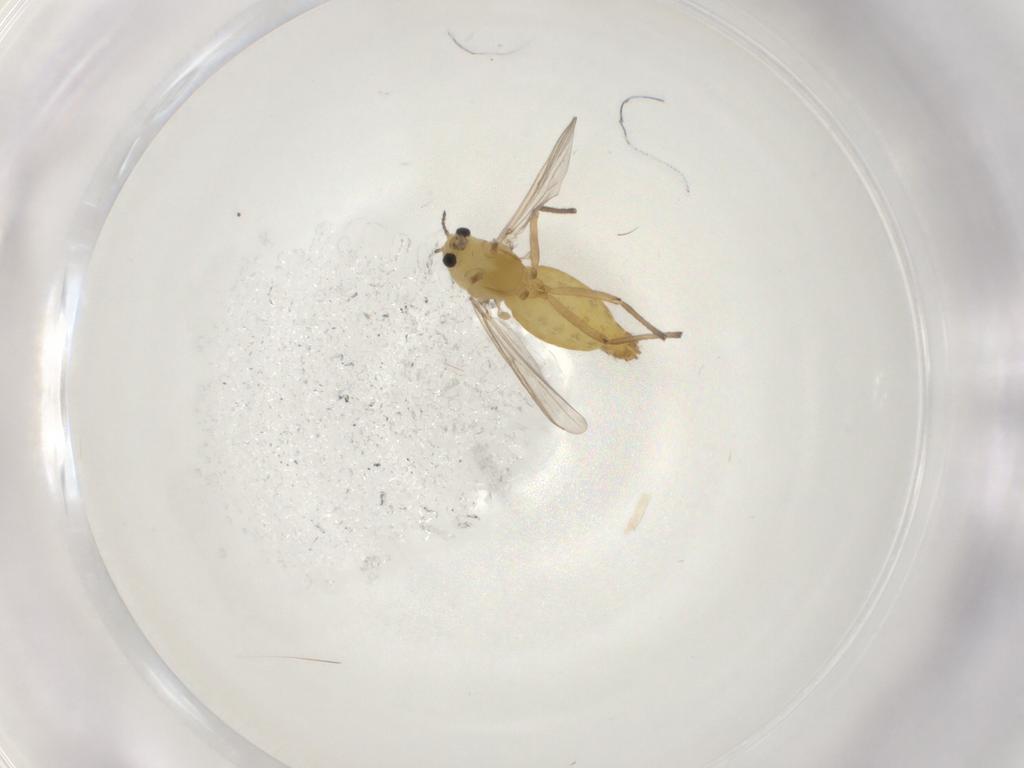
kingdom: Animalia
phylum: Arthropoda
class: Insecta
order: Diptera
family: Chironomidae
